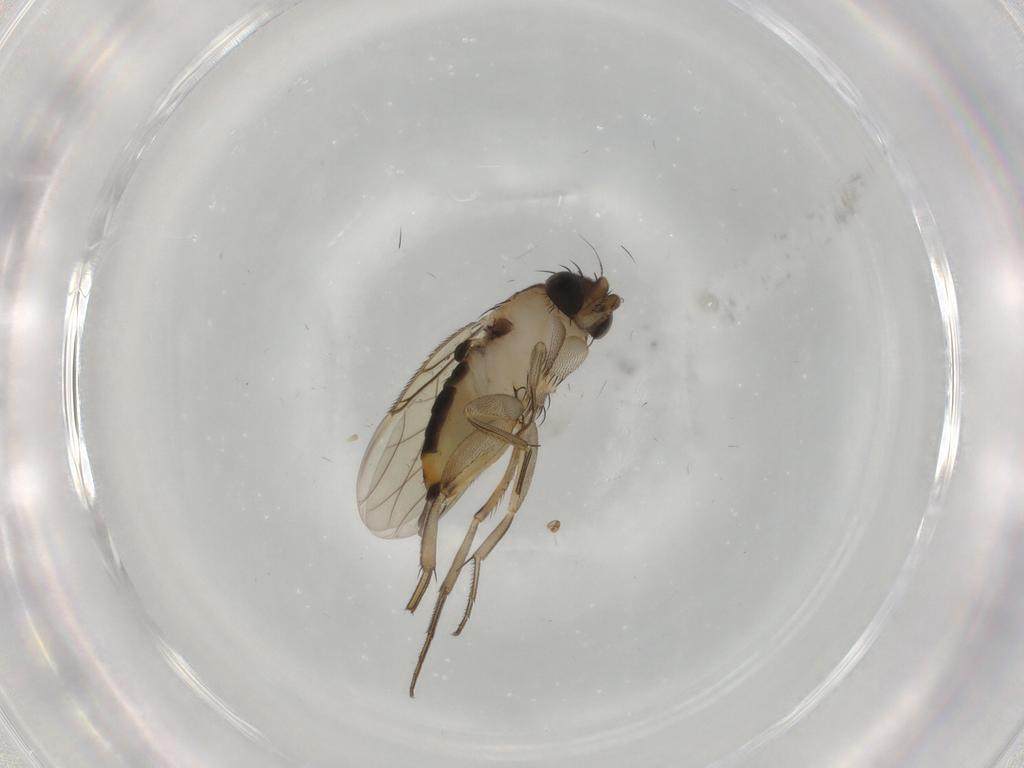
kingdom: Animalia
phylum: Arthropoda
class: Insecta
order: Diptera
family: Phoridae
